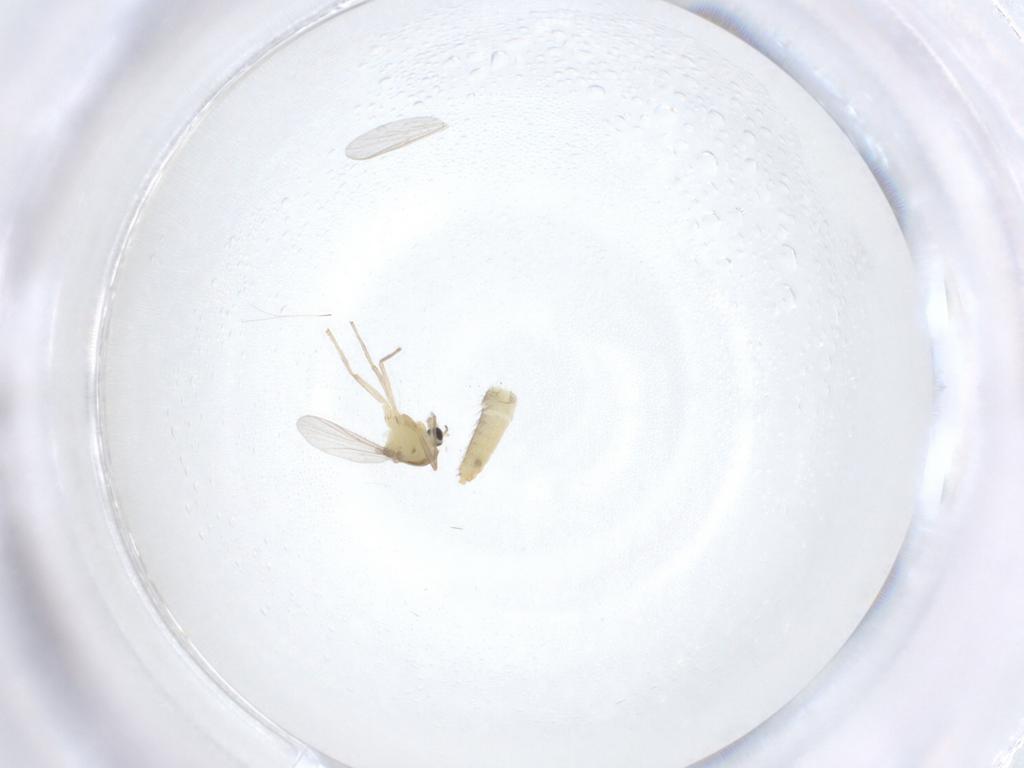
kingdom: Animalia
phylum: Arthropoda
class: Insecta
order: Diptera
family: Chironomidae
